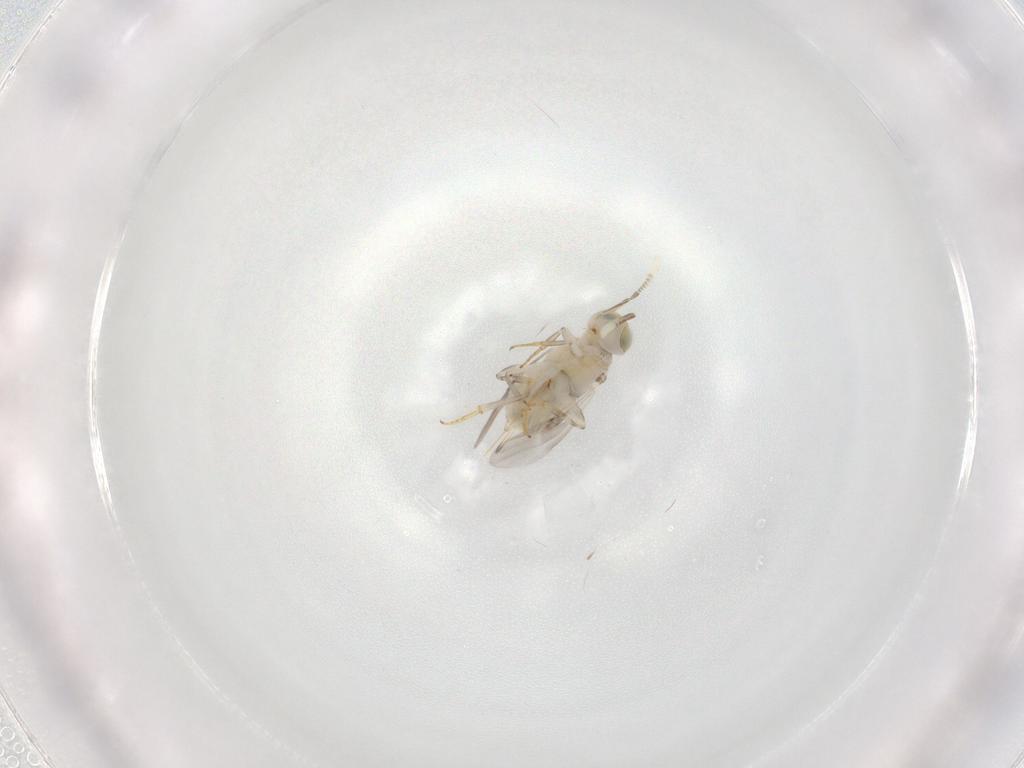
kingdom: Animalia
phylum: Arthropoda
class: Insecta
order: Hymenoptera
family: Encyrtidae
